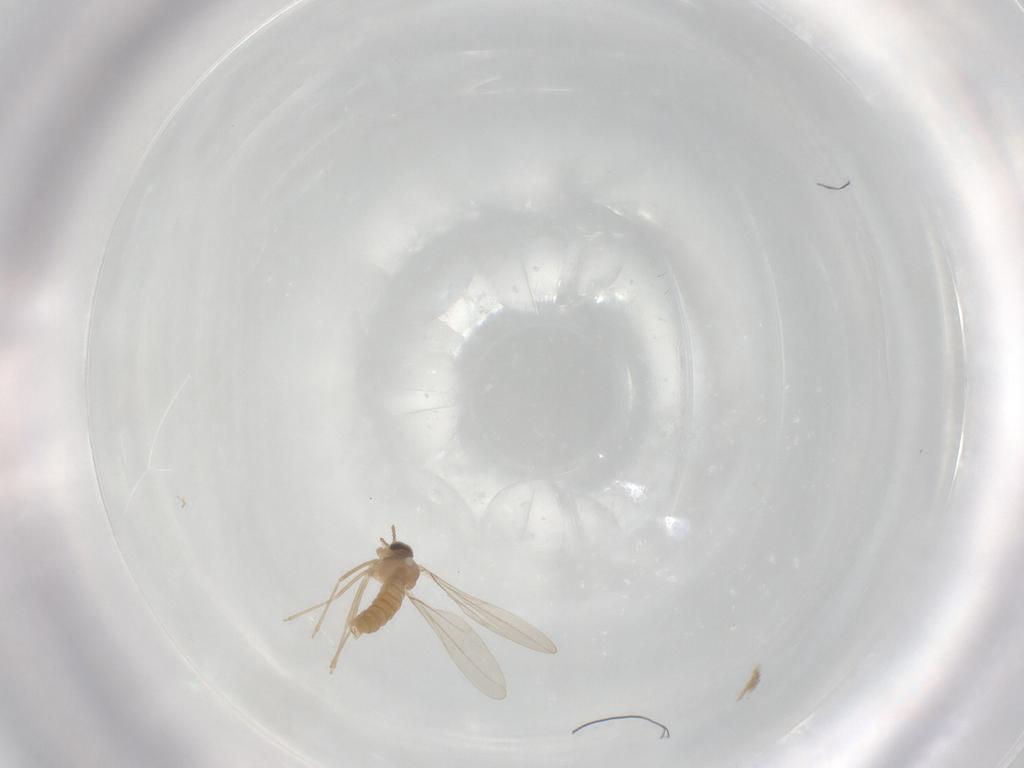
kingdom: Animalia
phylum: Arthropoda
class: Insecta
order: Diptera
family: Cecidomyiidae
